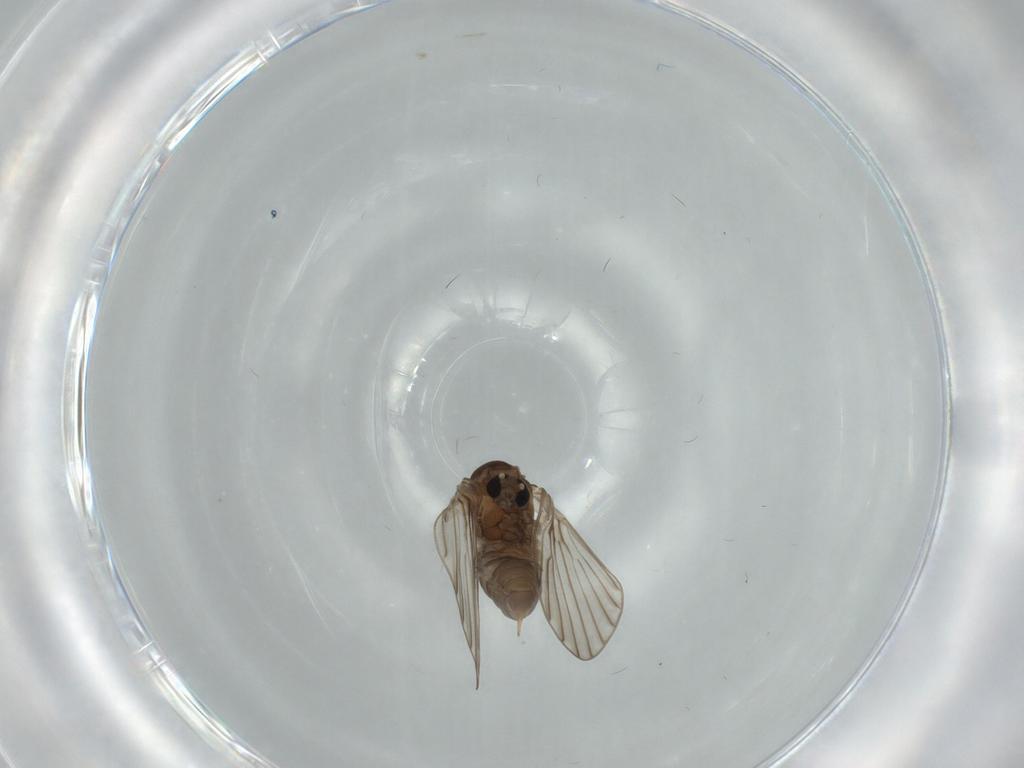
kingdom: Animalia
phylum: Arthropoda
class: Insecta
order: Diptera
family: Psychodidae
